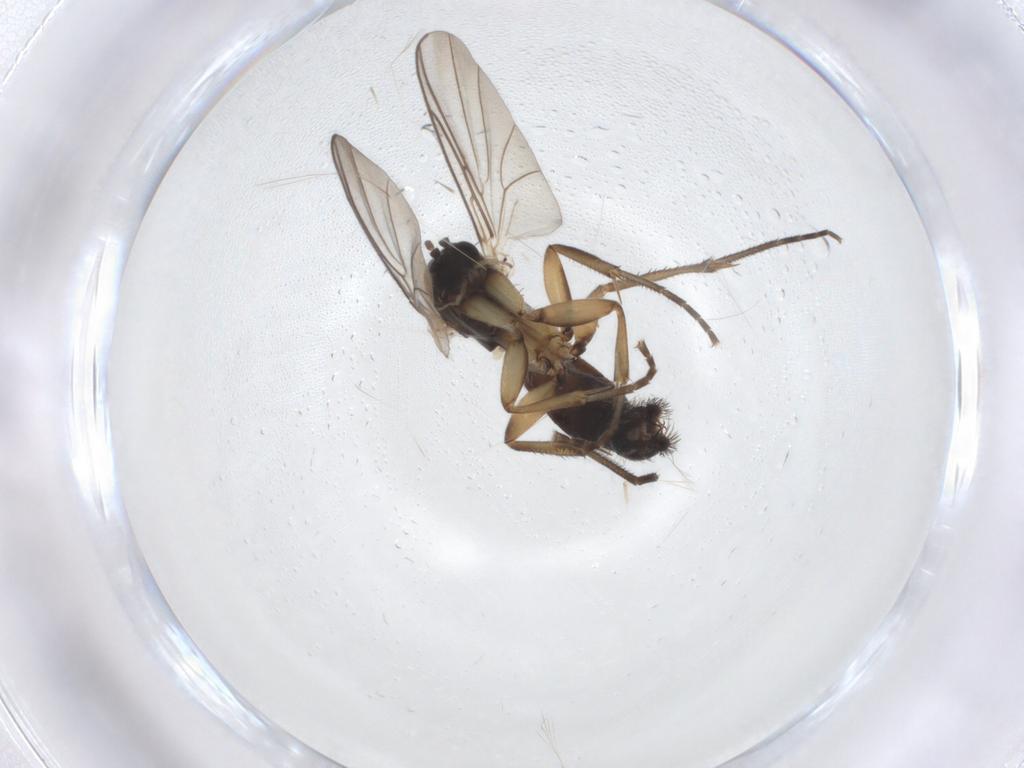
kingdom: Animalia
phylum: Arthropoda
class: Insecta
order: Diptera
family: Mycetophilidae
